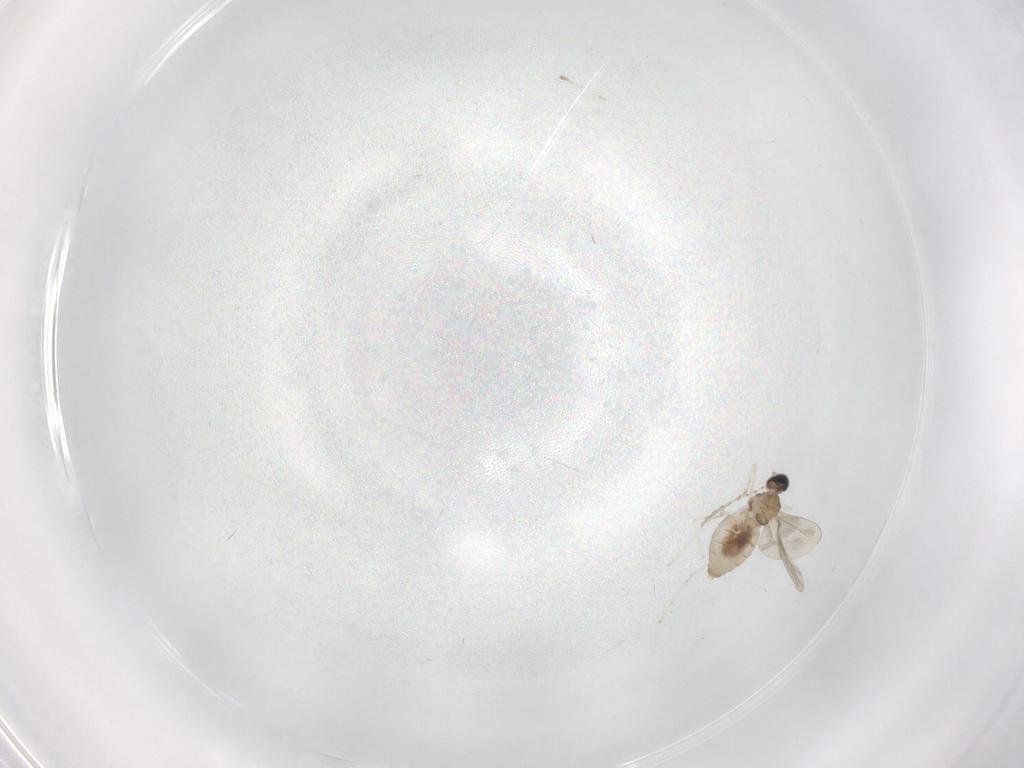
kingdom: Animalia
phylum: Arthropoda
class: Insecta
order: Diptera
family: Cecidomyiidae
